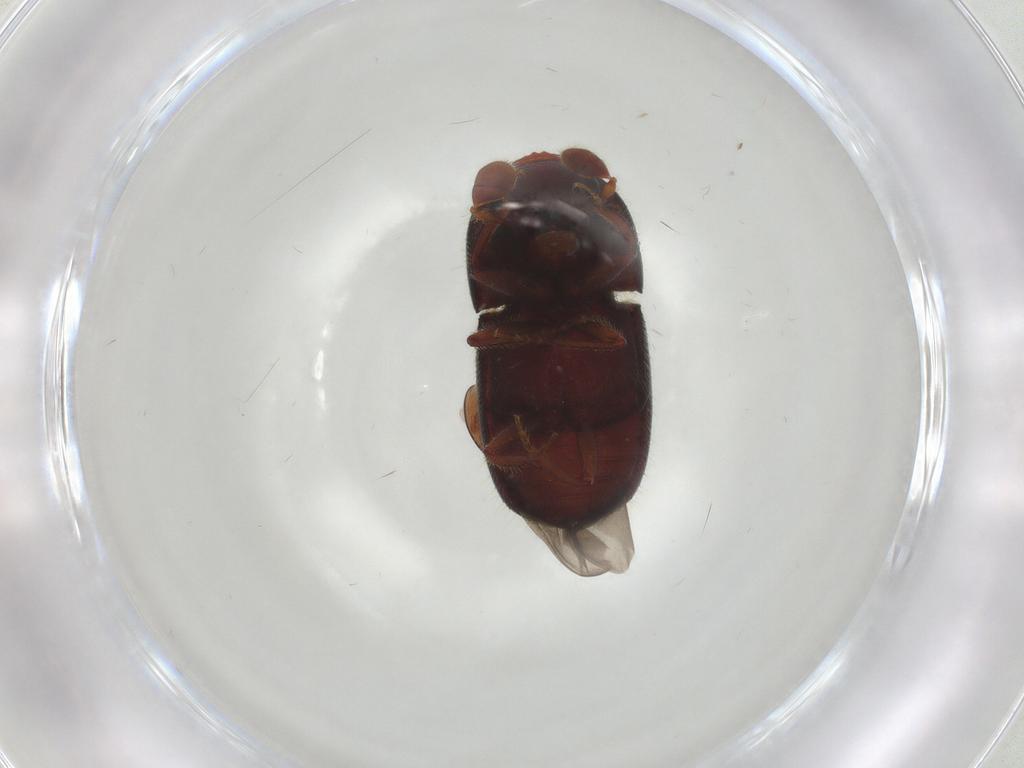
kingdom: Animalia
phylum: Arthropoda
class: Insecta
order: Coleoptera
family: Curculionidae
